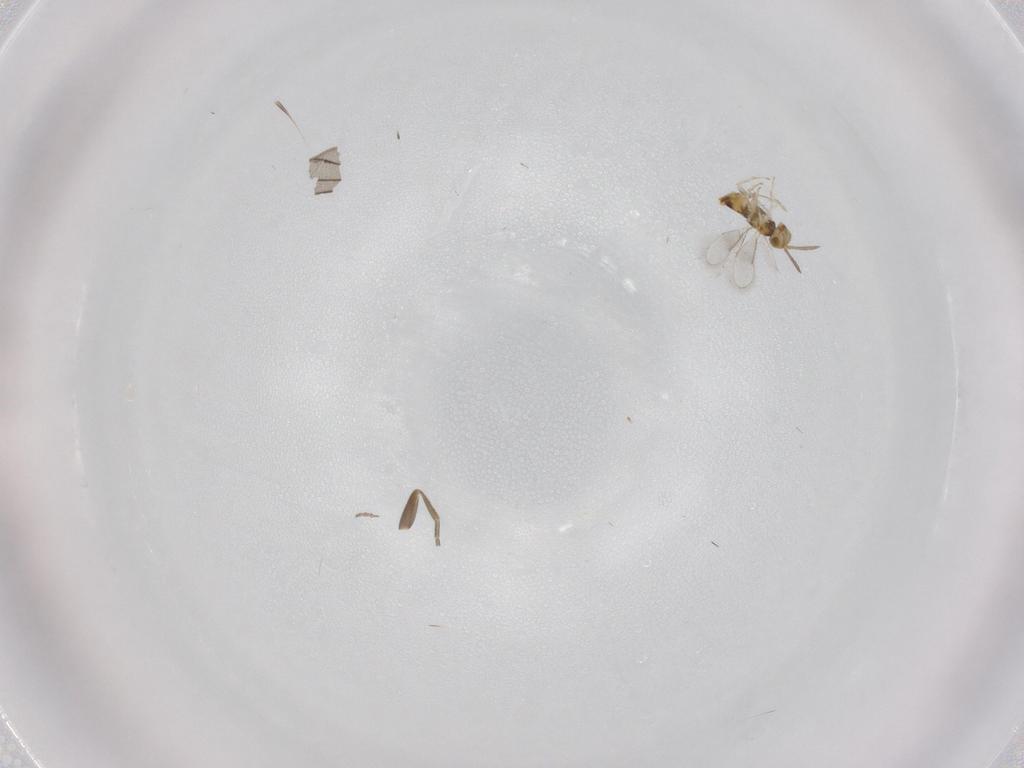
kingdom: Animalia
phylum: Arthropoda
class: Insecta
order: Hymenoptera
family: Aphelinidae
